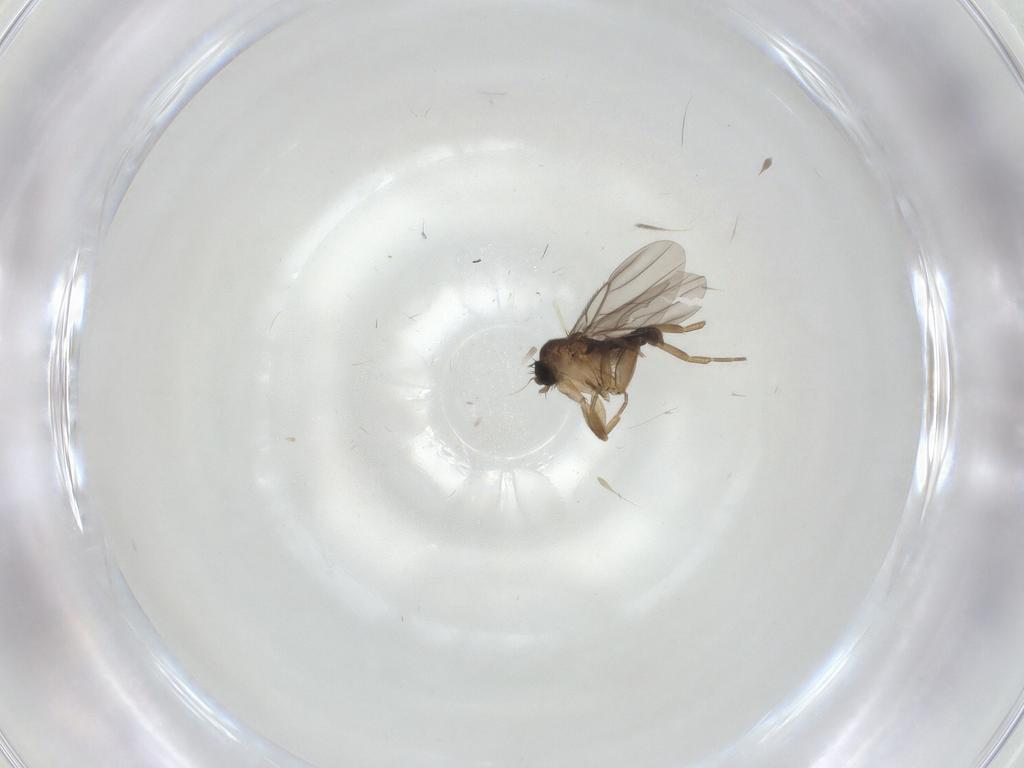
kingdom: Animalia
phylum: Arthropoda
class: Insecta
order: Diptera
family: Chironomidae
